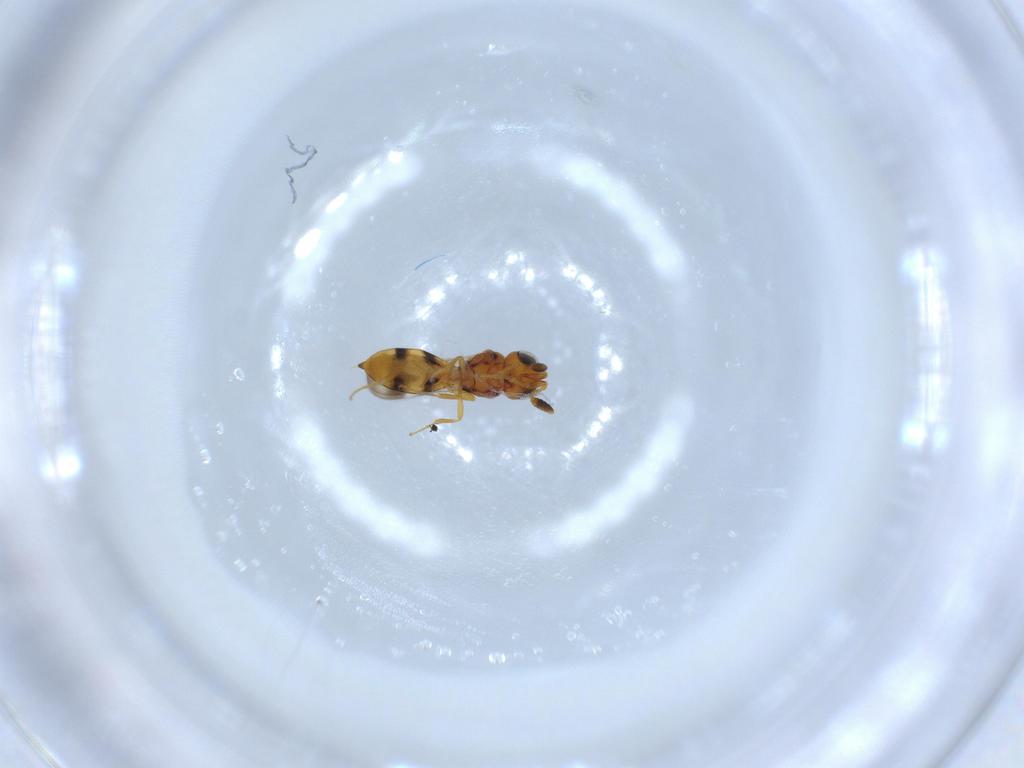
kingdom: Animalia
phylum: Arthropoda
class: Insecta
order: Hymenoptera
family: Scelionidae
